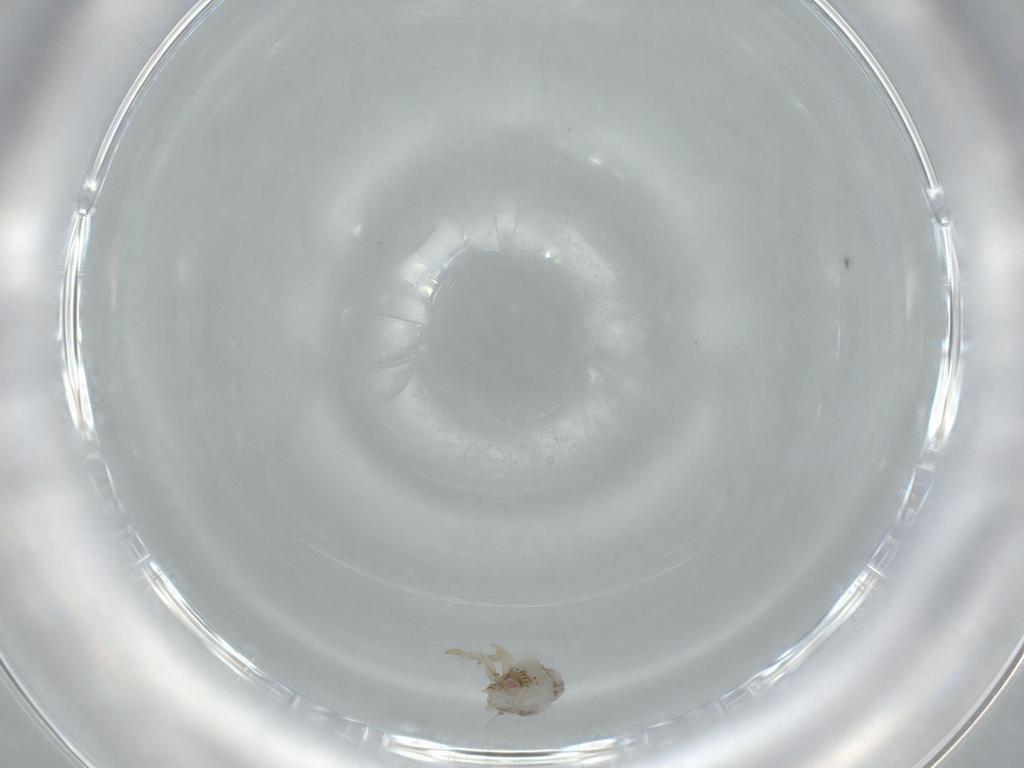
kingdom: Animalia
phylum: Arthropoda
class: Insecta
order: Hemiptera
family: Acanaloniidae
